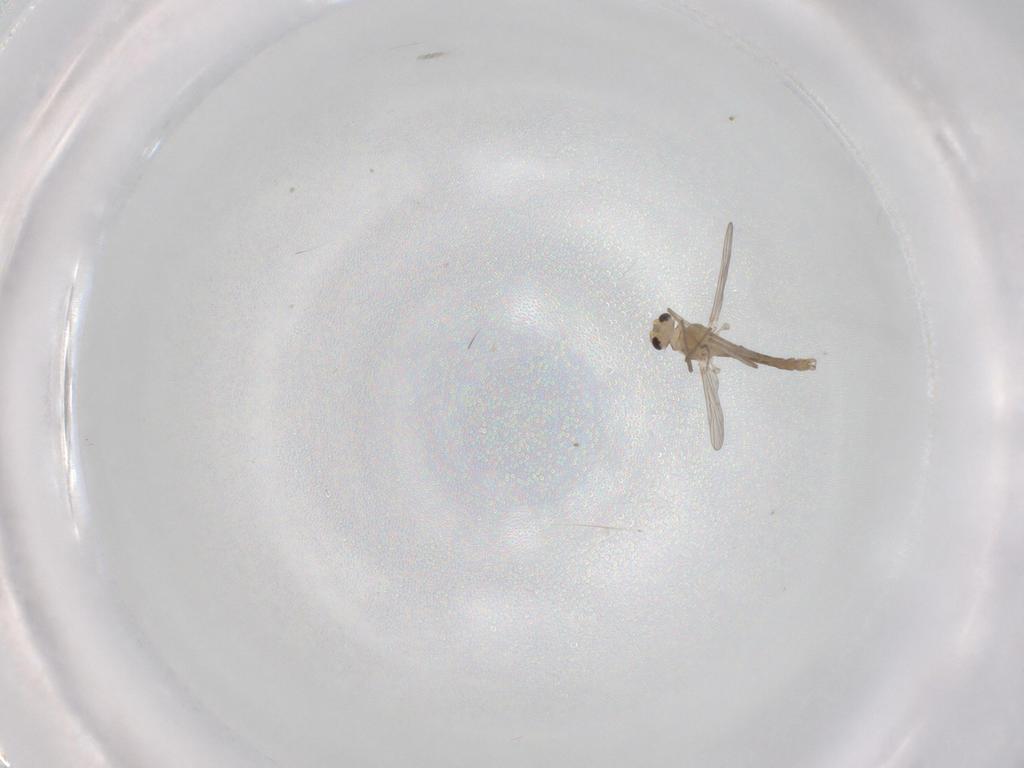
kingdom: Animalia
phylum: Arthropoda
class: Insecta
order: Diptera
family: Chironomidae
